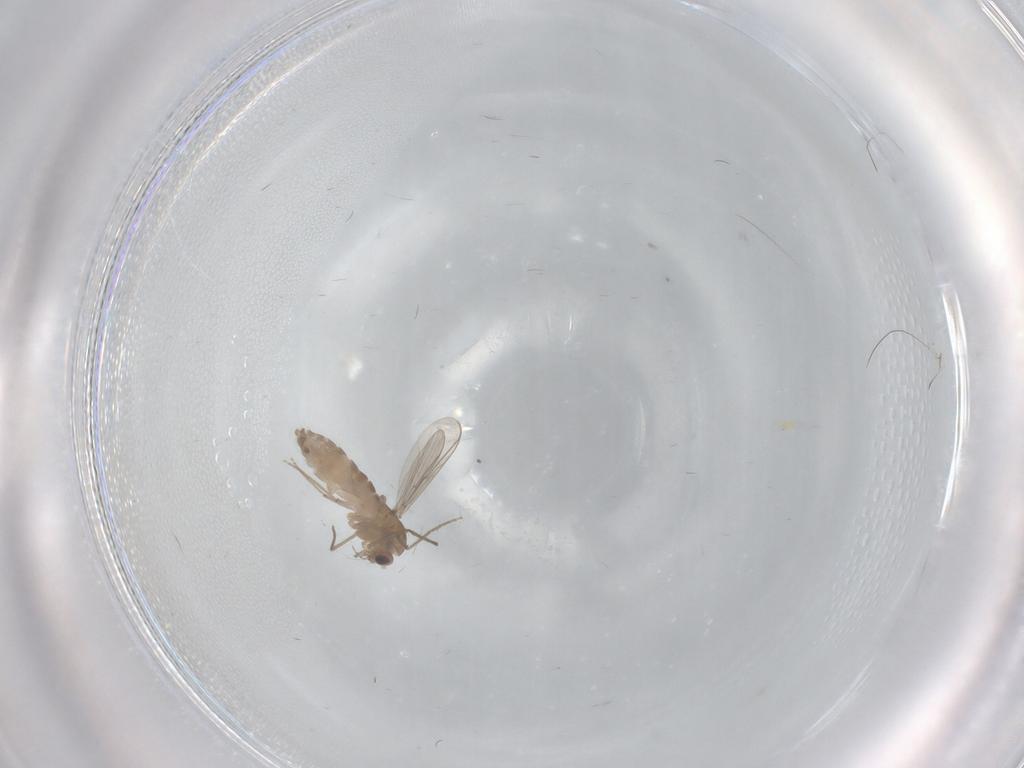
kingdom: Animalia
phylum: Arthropoda
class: Insecta
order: Diptera
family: Chironomidae
